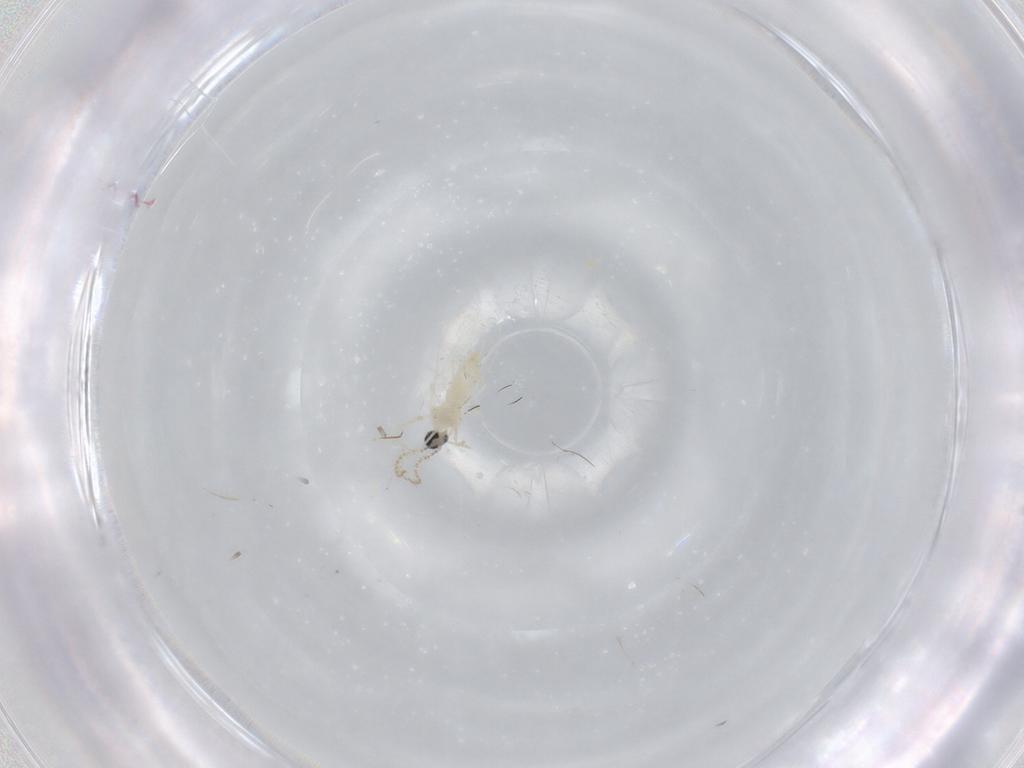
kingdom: Animalia
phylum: Arthropoda
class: Insecta
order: Diptera
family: Cecidomyiidae
